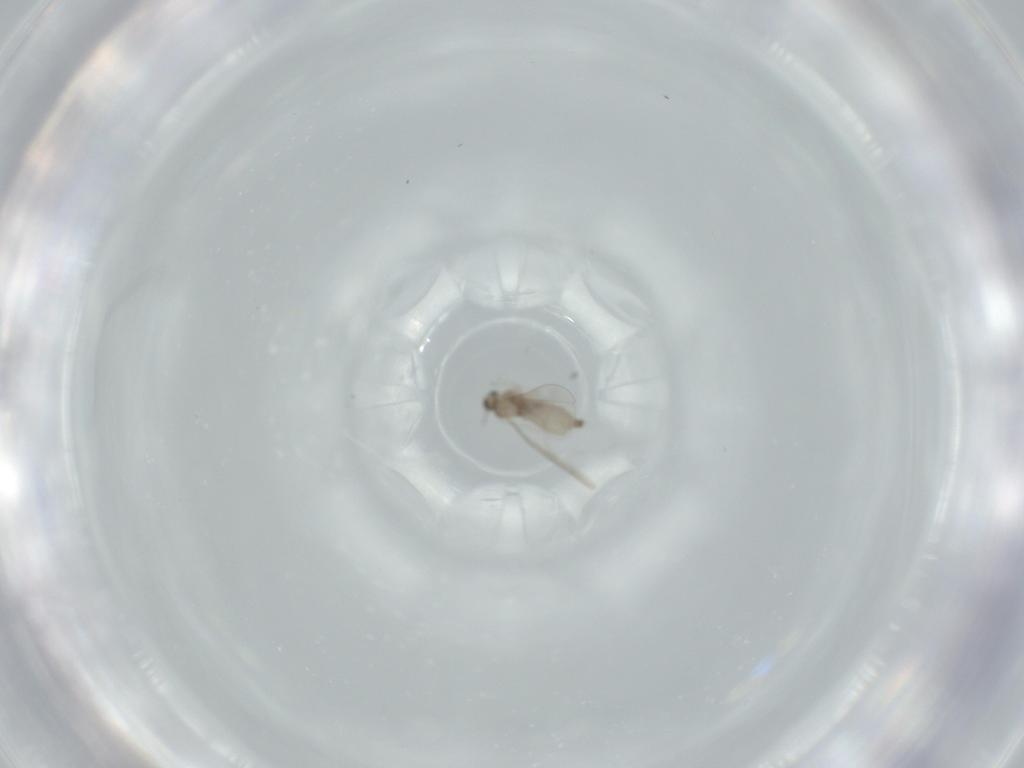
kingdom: Animalia
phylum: Arthropoda
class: Insecta
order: Diptera
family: Cecidomyiidae
